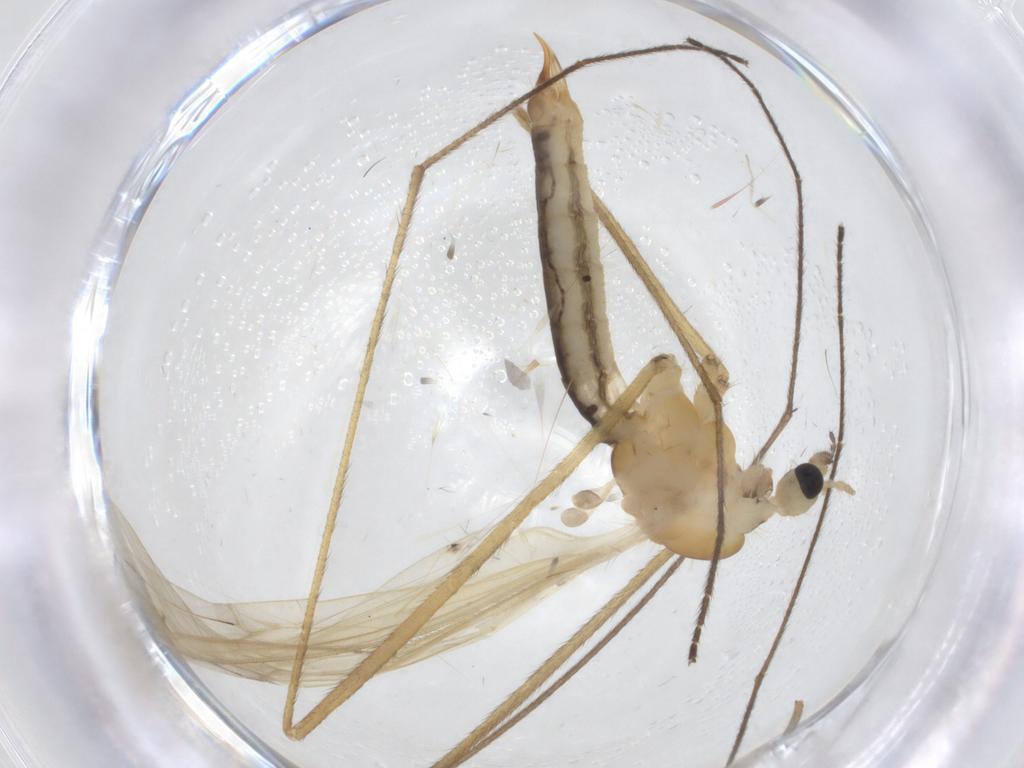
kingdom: Animalia
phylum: Arthropoda
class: Insecta
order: Diptera
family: Limoniidae
